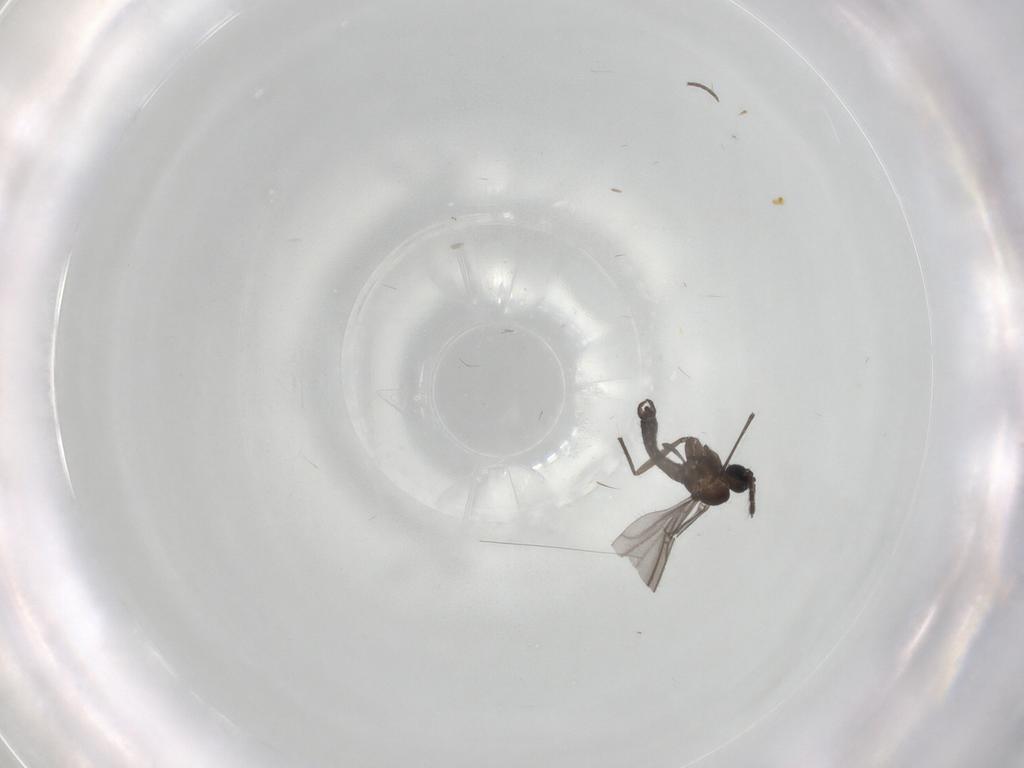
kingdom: Animalia
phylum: Arthropoda
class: Insecta
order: Diptera
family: Sciaridae
